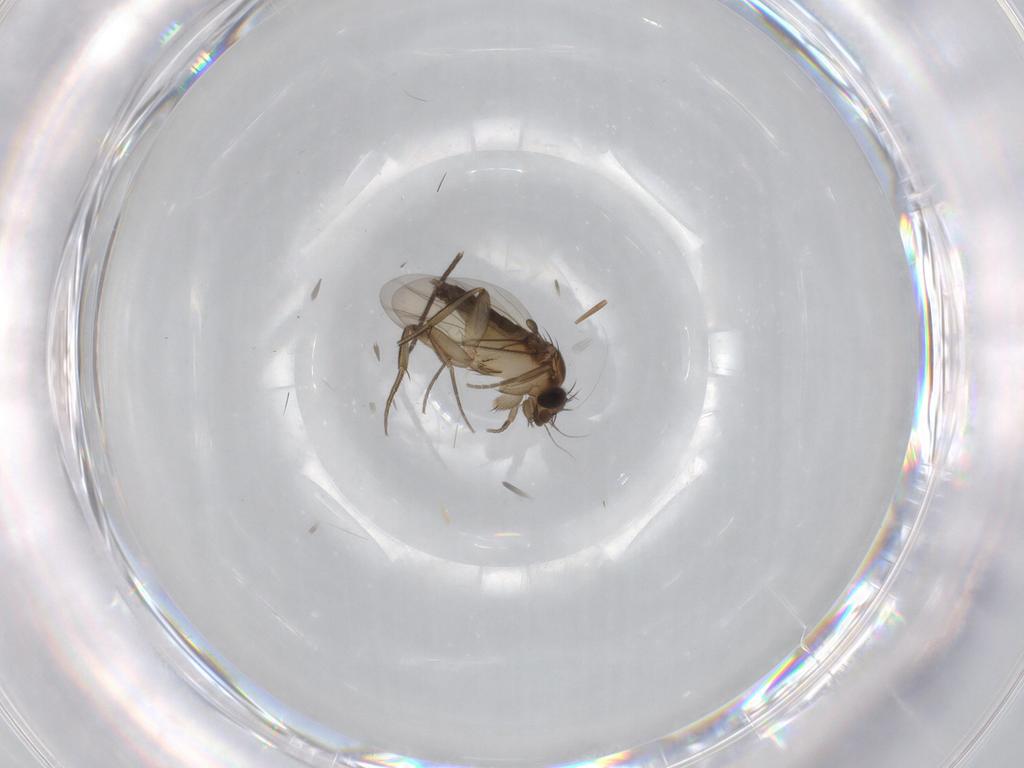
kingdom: Animalia
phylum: Arthropoda
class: Insecta
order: Diptera
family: Phoridae
